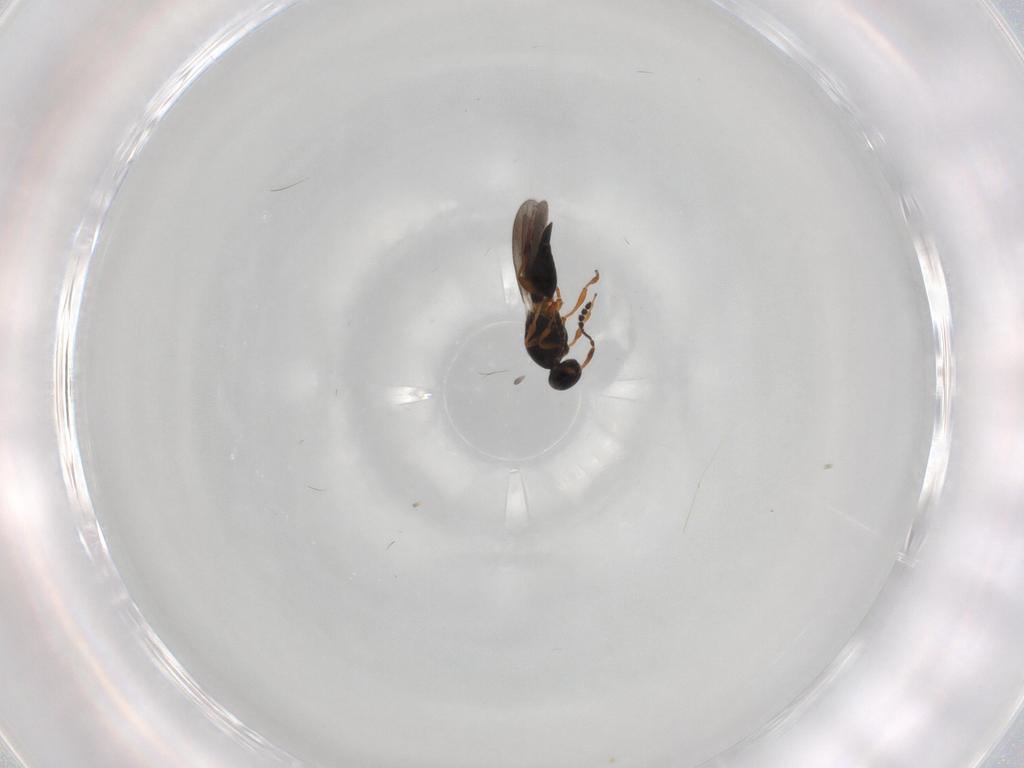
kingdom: Animalia
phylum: Arthropoda
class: Insecta
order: Hymenoptera
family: Platygastridae
